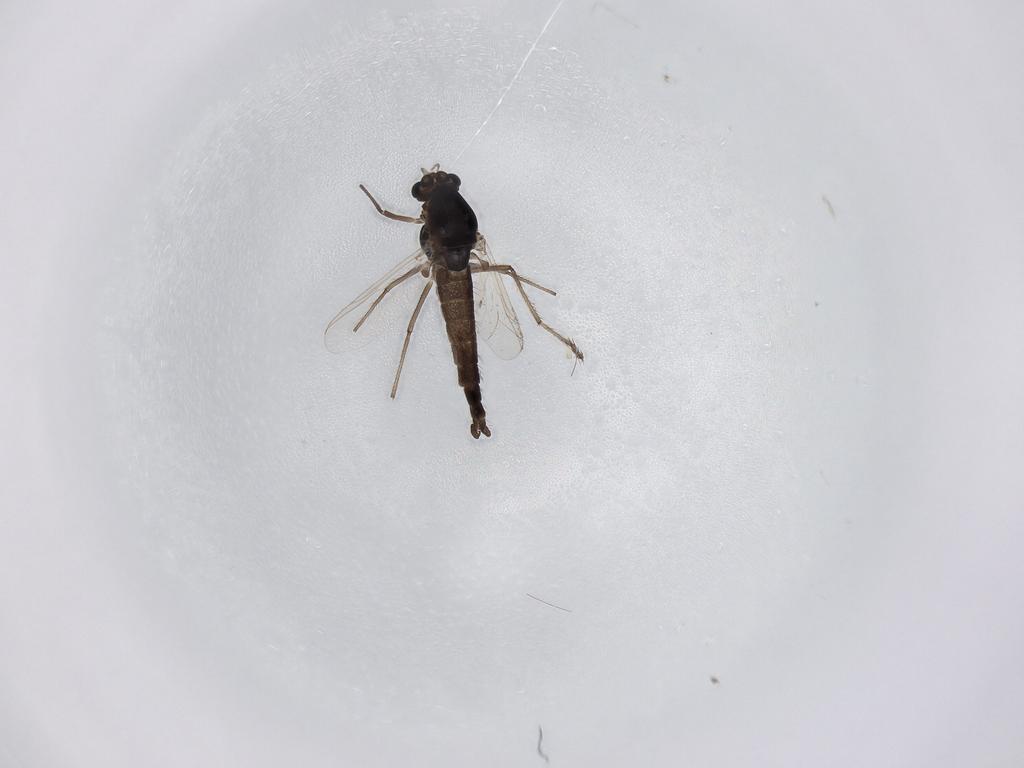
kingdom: Animalia
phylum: Arthropoda
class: Insecta
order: Diptera
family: Chironomidae
